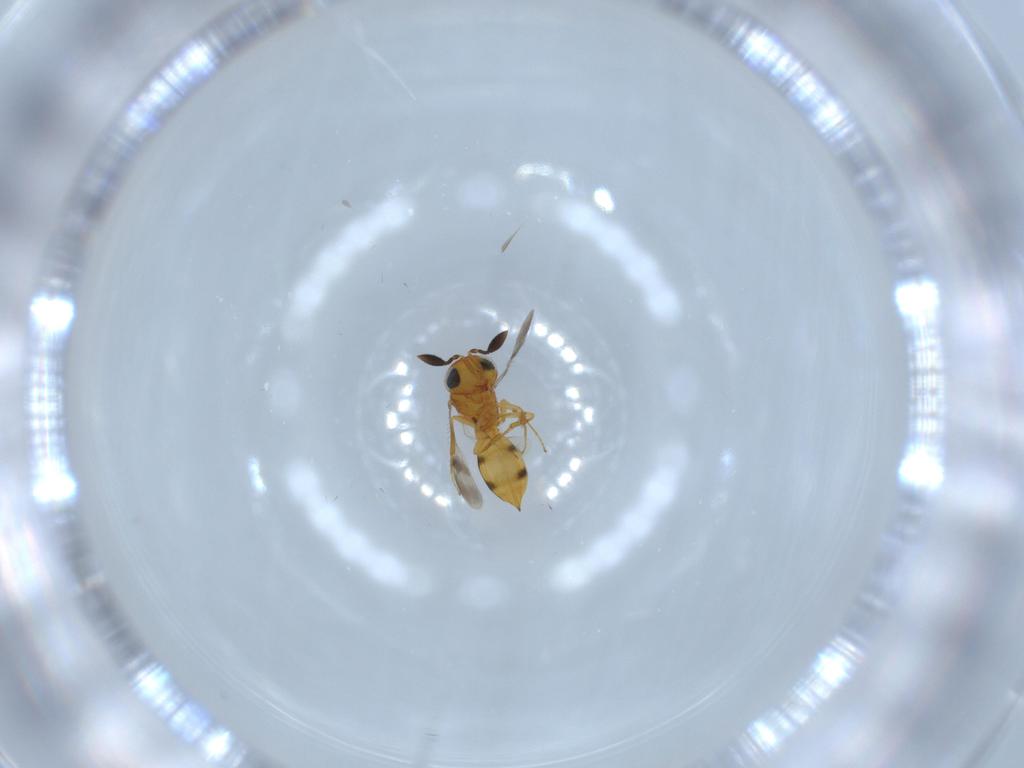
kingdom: Animalia
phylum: Arthropoda
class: Insecta
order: Hymenoptera
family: Scelionidae
